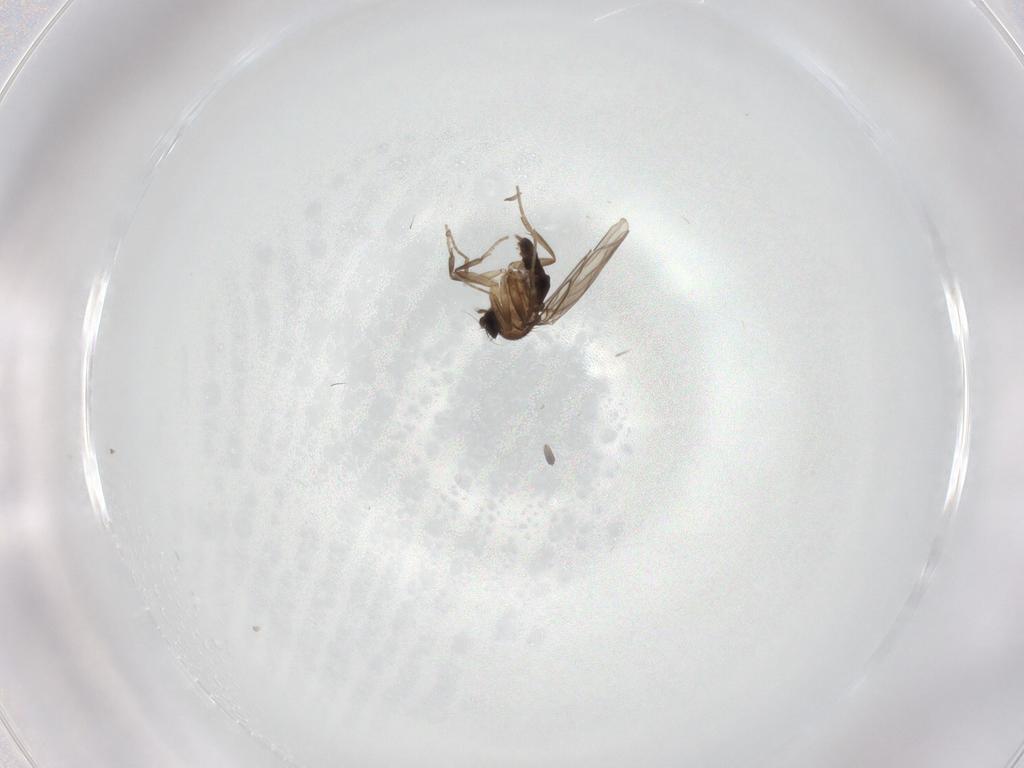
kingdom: Animalia
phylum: Arthropoda
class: Insecta
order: Diptera
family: Phoridae
